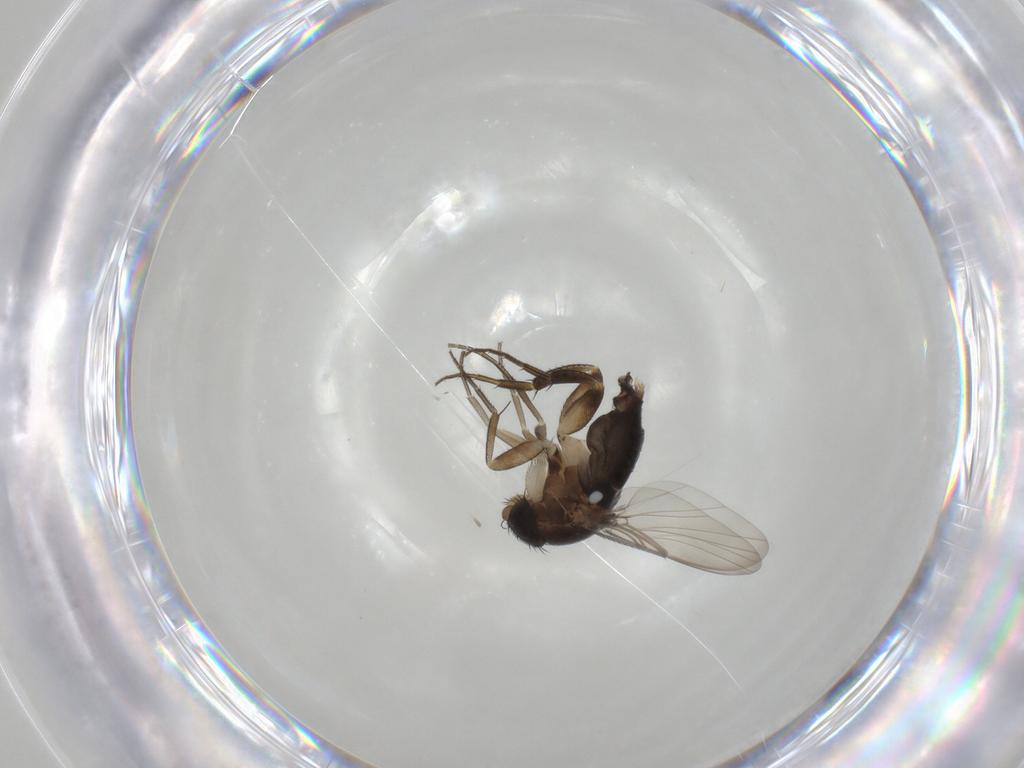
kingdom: Animalia
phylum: Arthropoda
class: Insecta
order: Diptera
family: Phoridae
